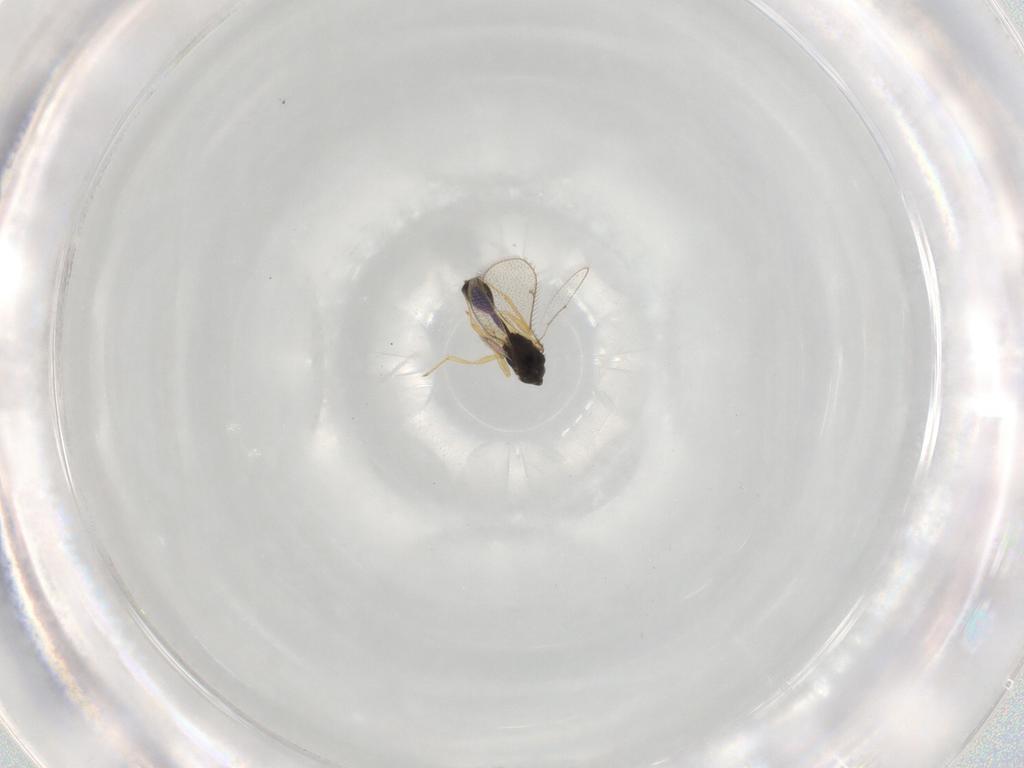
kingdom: Animalia
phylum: Arthropoda
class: Insecta
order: Hymenoptera
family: Pteromalidae
